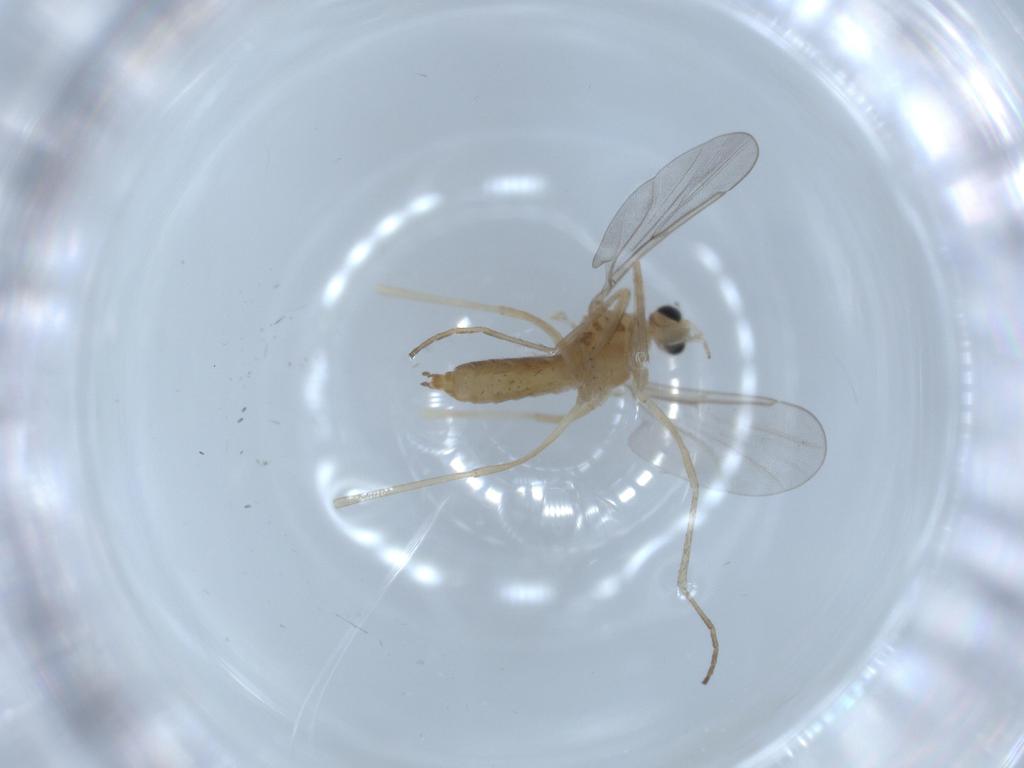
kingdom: Animalia
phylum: Arthropoda
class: Insecta
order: Diptera
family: Cecidomyiidae
